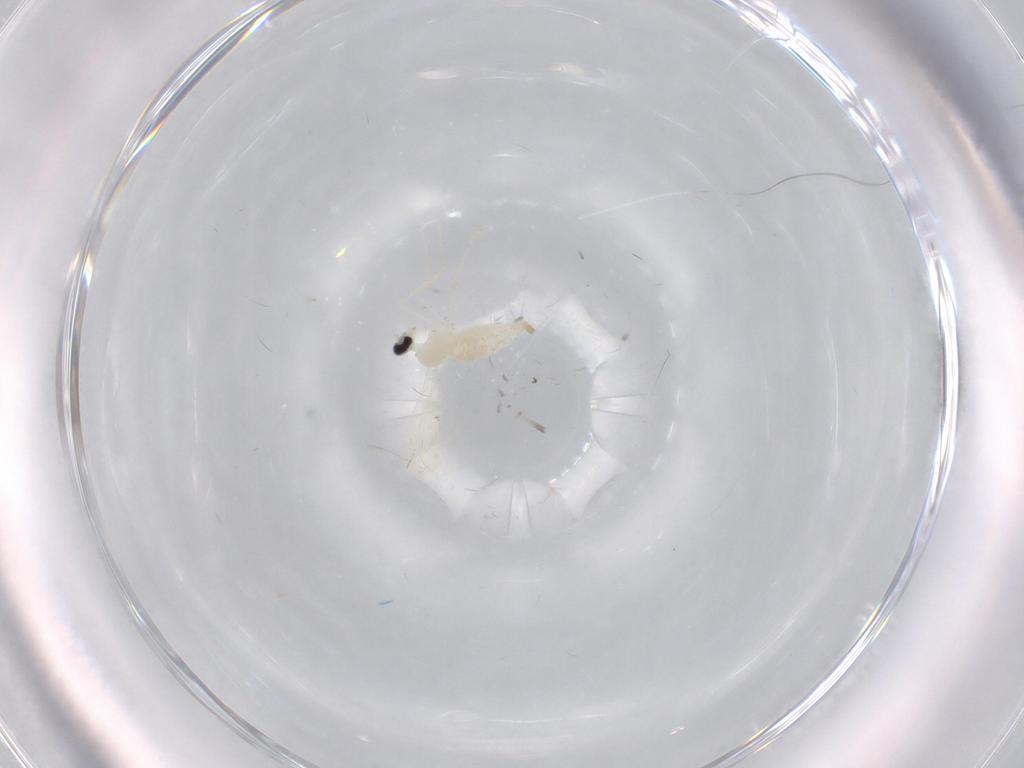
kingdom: Animalia
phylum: Arthropoda
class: Insecta
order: Diptera
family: Cecidomyiidae
